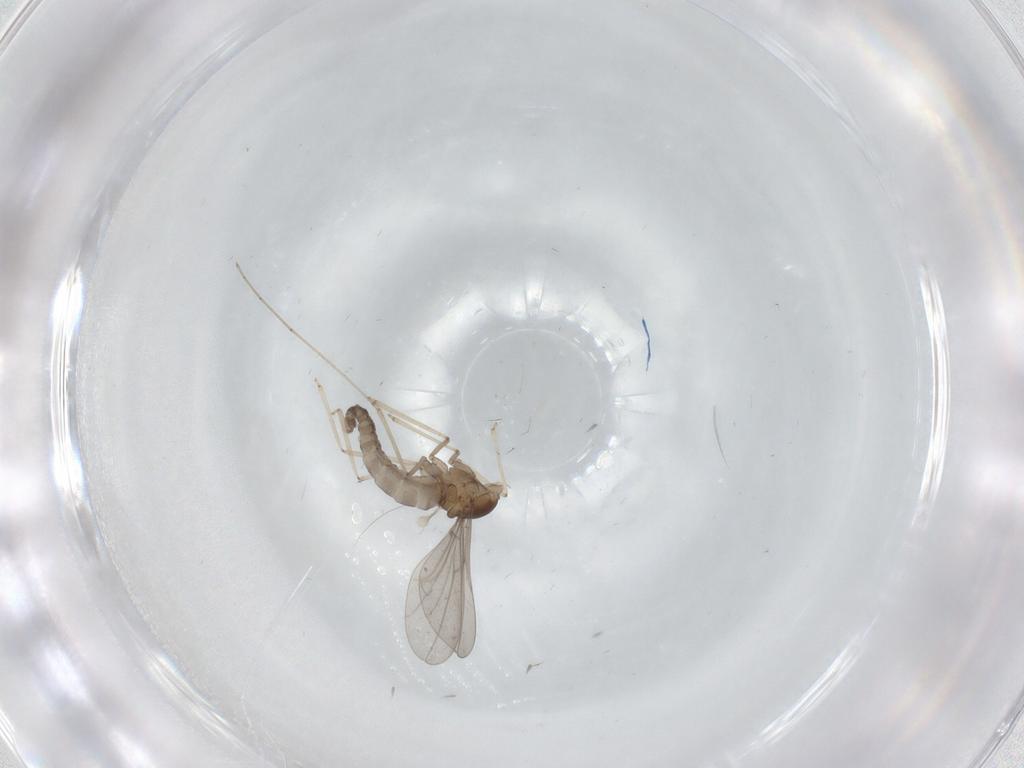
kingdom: Animalia
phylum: Arthropoda
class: Insecta
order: Diptera
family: Cecidomyiidae
